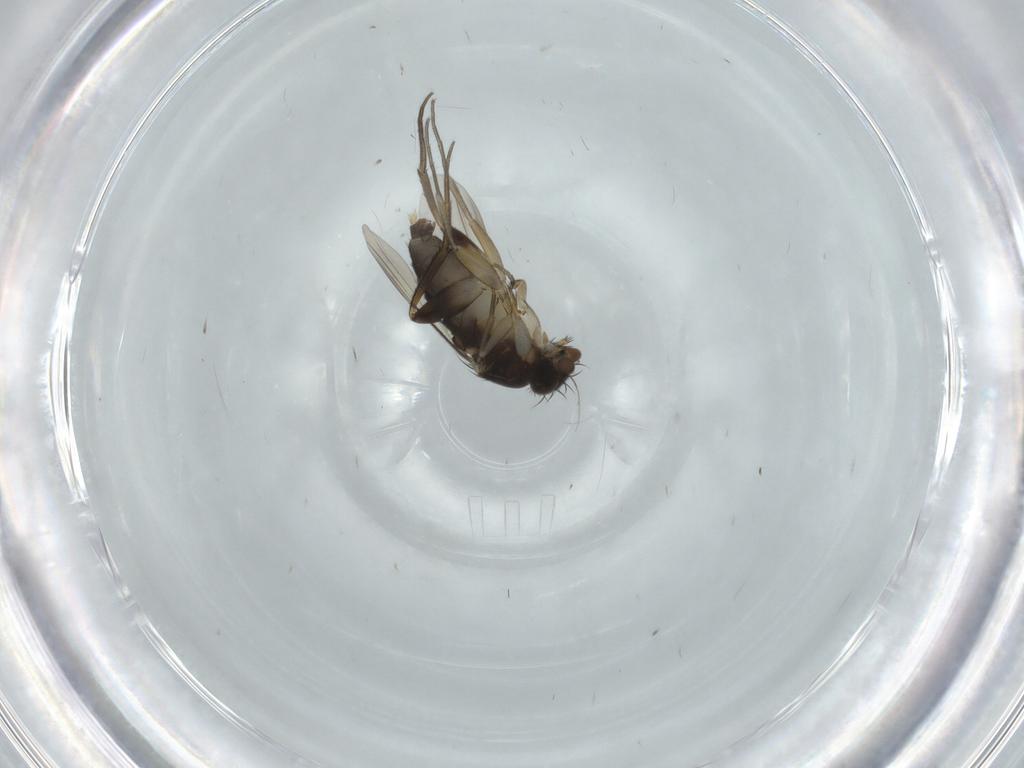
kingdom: Animalia
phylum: Arthropoda
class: Insecta
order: Diptera
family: Phoridae
